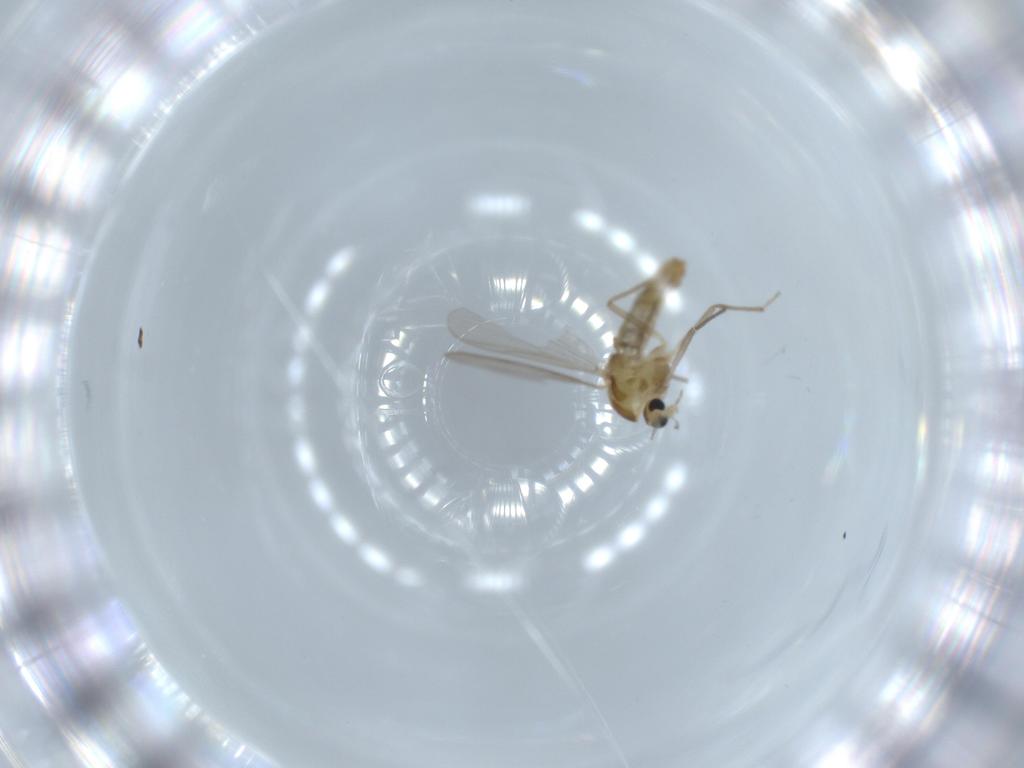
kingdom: Animalia
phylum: Arthropoda
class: Insecta
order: Diptera
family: Chironomidae
